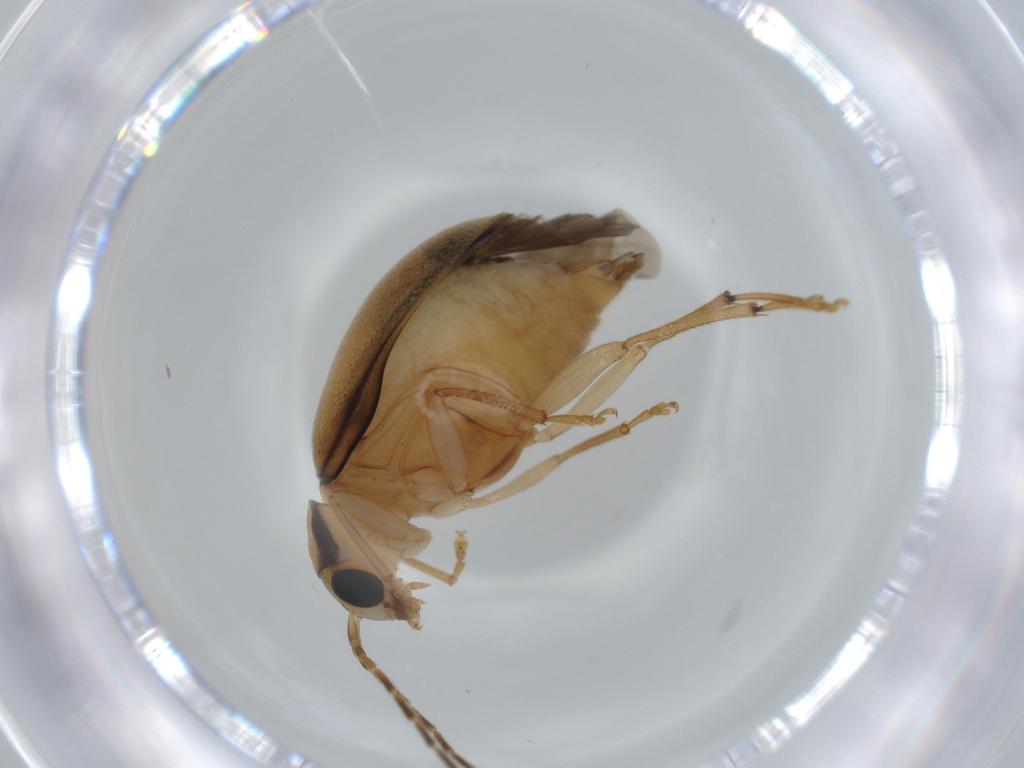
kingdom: Animalia
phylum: Arthropoda
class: Insecta
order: Coleoptera
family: Chrysomelidae
